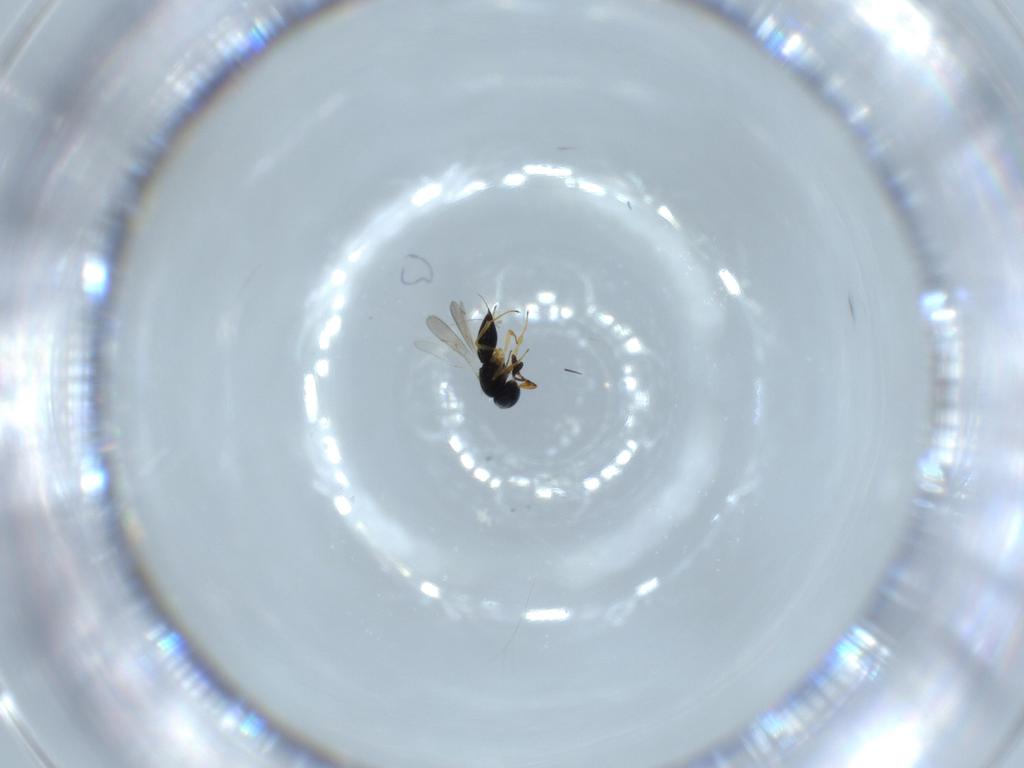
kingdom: Animalia
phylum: Arthropoda
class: Insecta
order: Hymenoptera
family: Scelionidae
